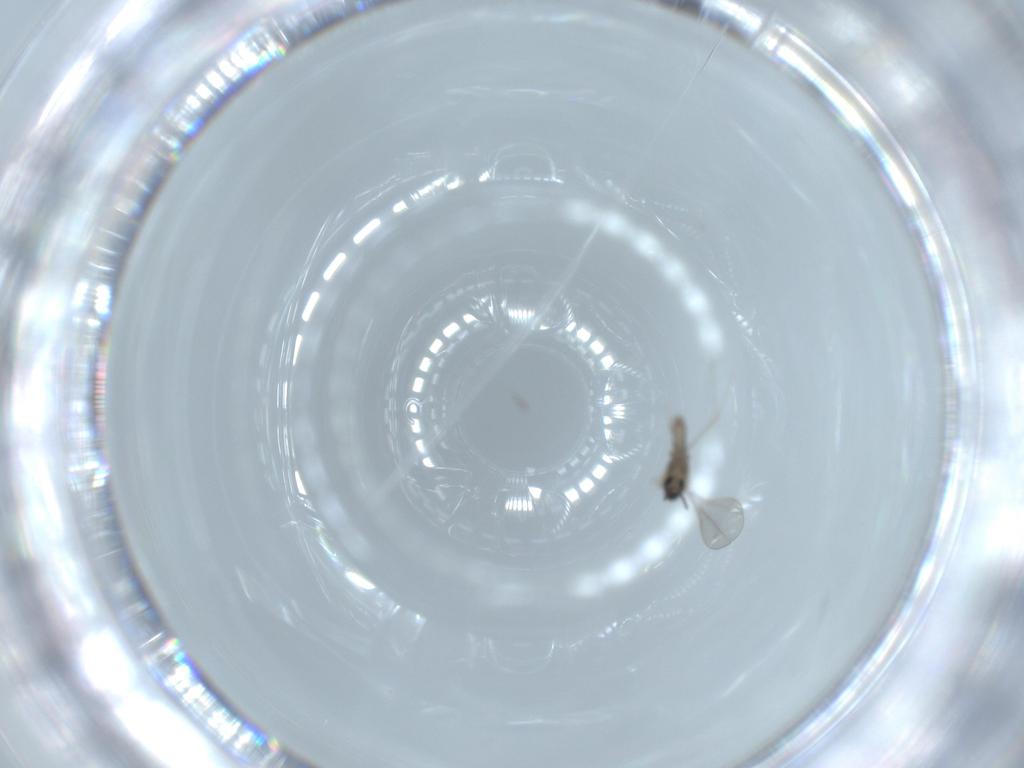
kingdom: Animalia
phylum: Arthropoda
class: Insecta
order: Diptera
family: Cecidomyiidae
